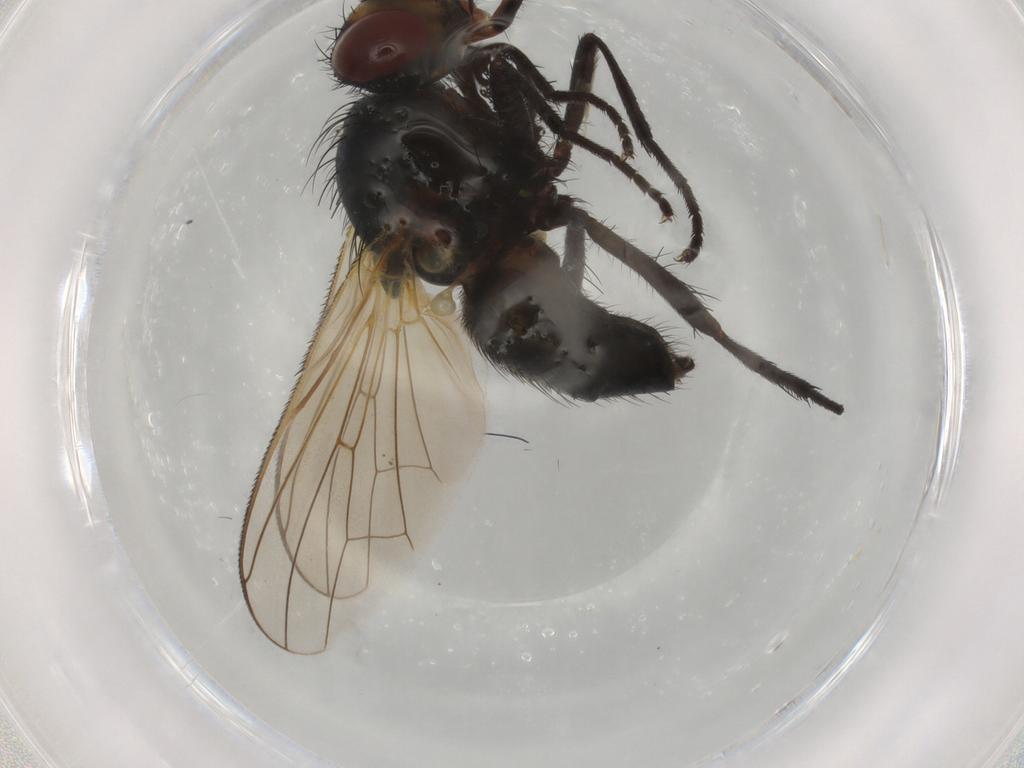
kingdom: Animalia
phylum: Arthropoda
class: Insecta
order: Diptera
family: Anthomyiidae
